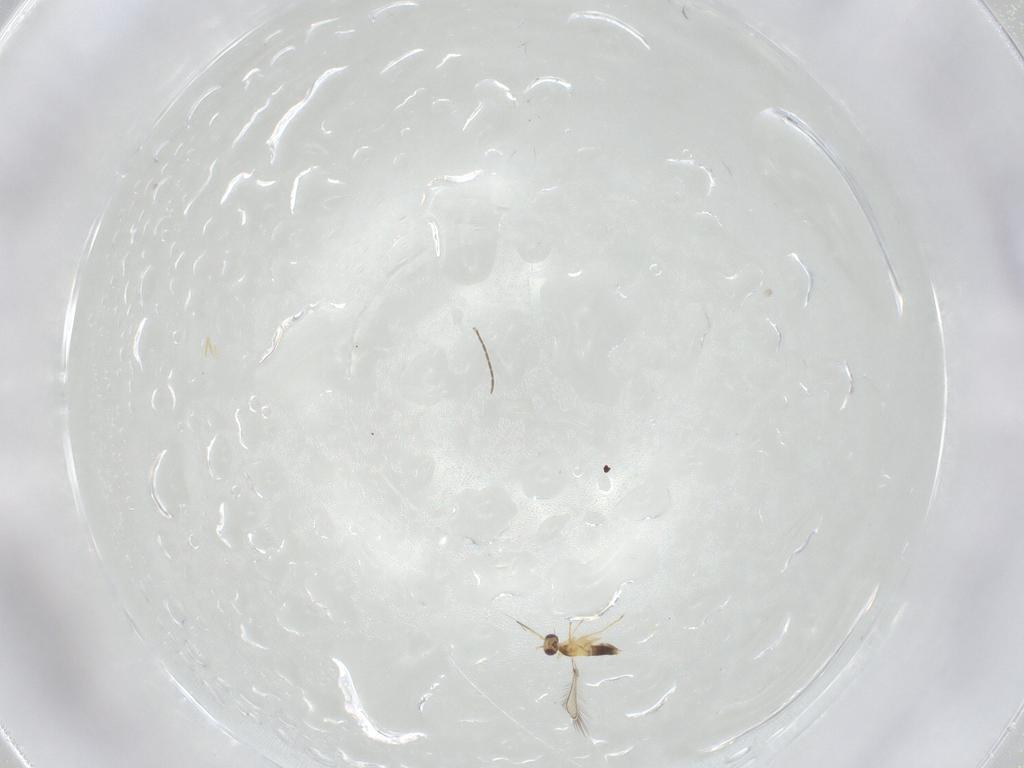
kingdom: Animalia
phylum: Arthropoda
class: Insecta
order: Hymenoptera
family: Mymaridae
